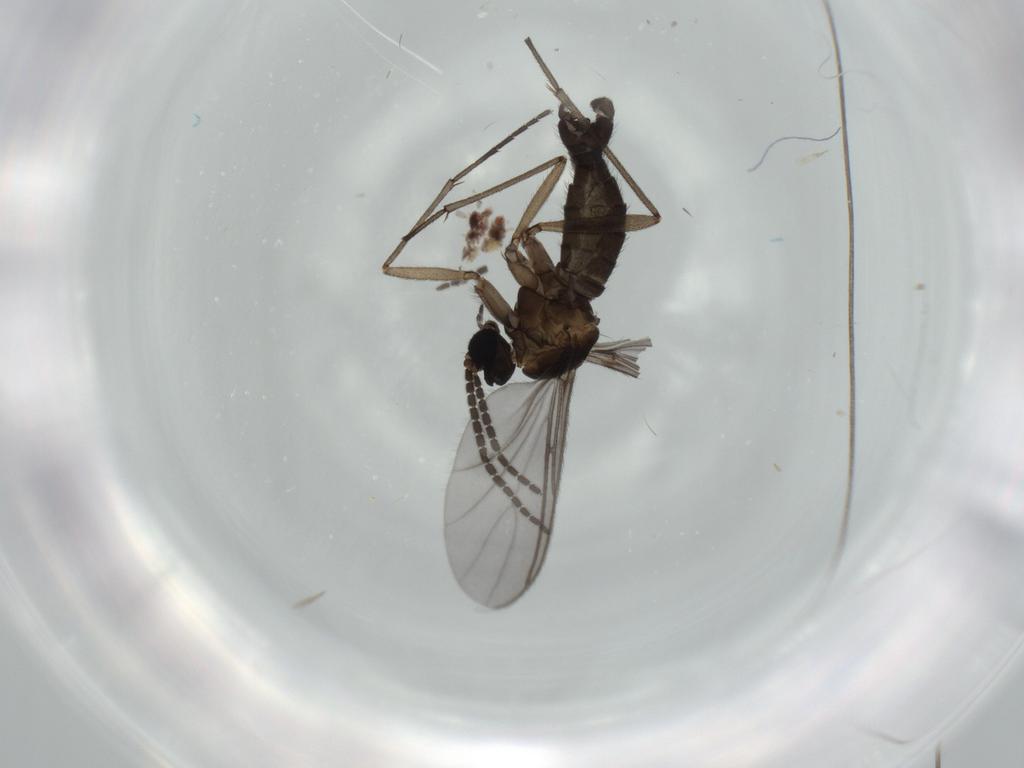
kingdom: Animalia
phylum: Arthropoda
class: Insecta
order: Diptera
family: Sciaridae
